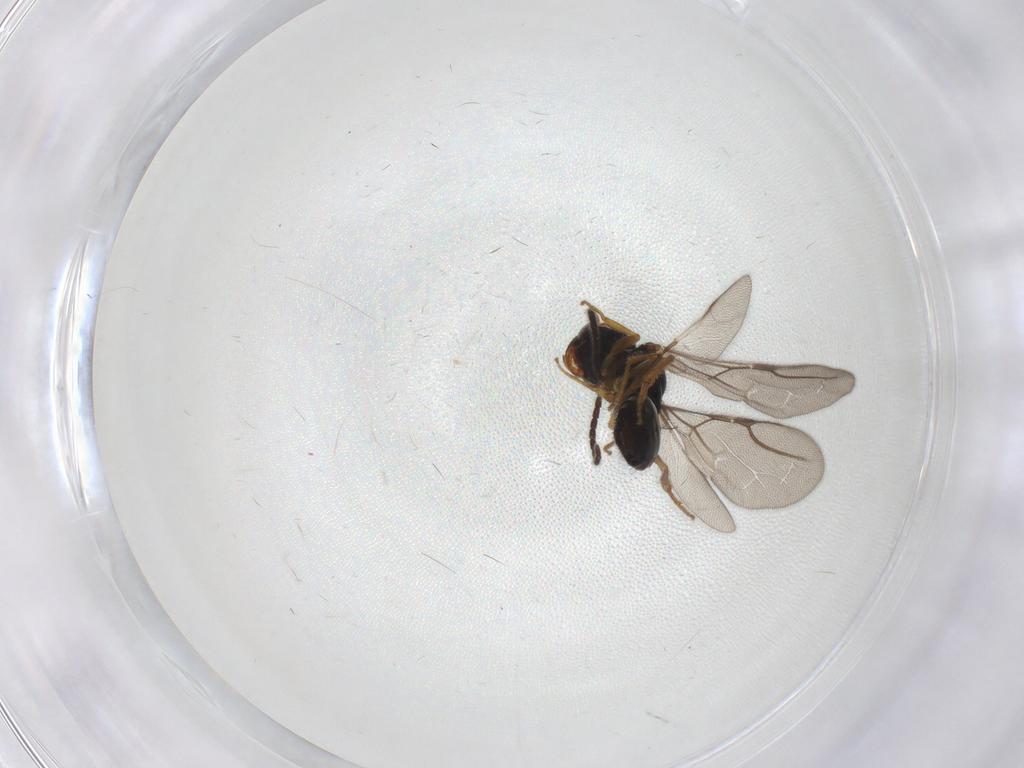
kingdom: Animalia
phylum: Arthropoda
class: Insecta
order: Hymenoptera
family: Bethylidae
